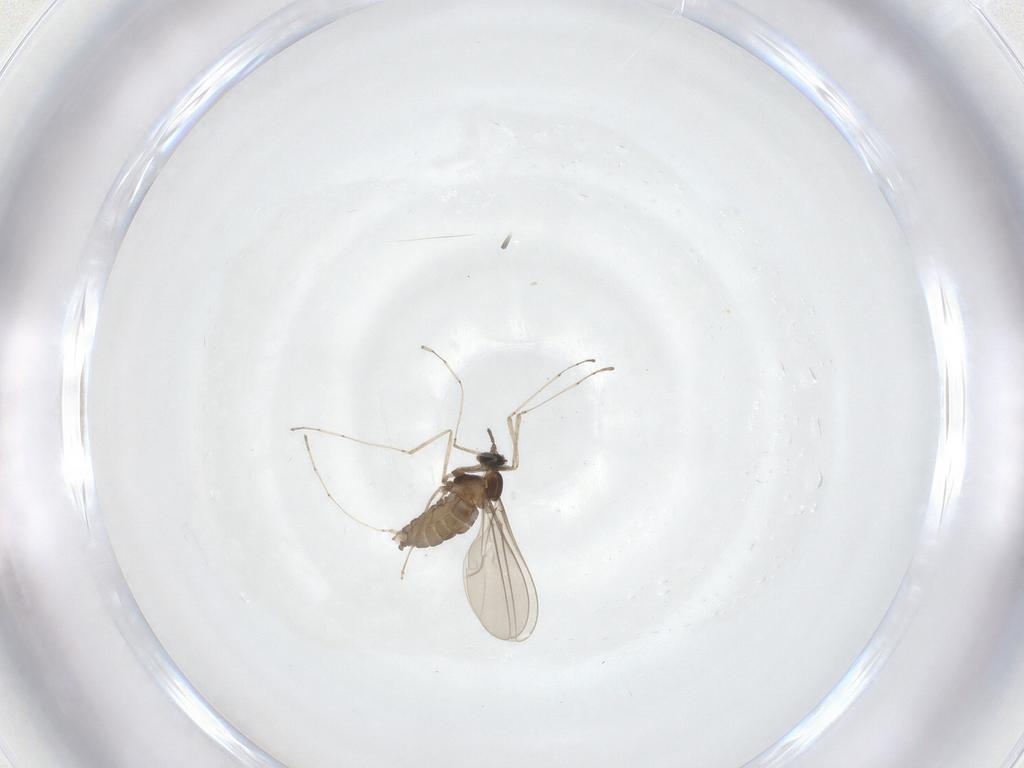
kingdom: Animalia
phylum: Arthropoda
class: Insecta
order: Diptera
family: Cecidomyiidae
